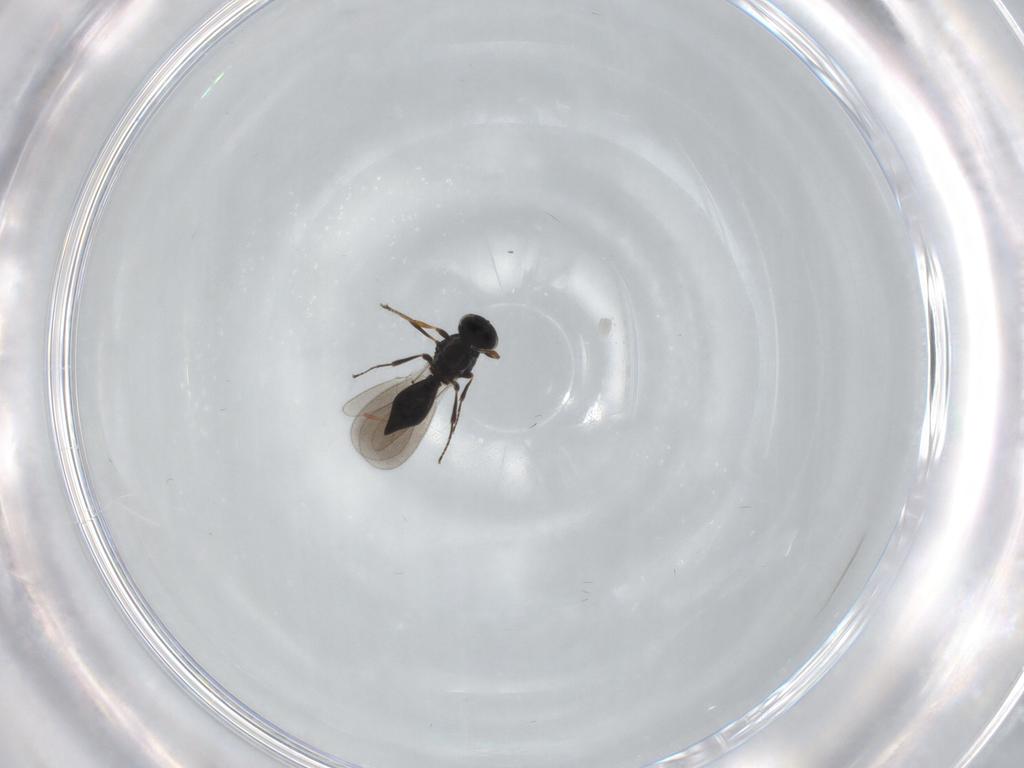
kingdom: Animalia
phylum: Arthropoda
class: Insecta
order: Hymenoptera
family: Platygastridae
